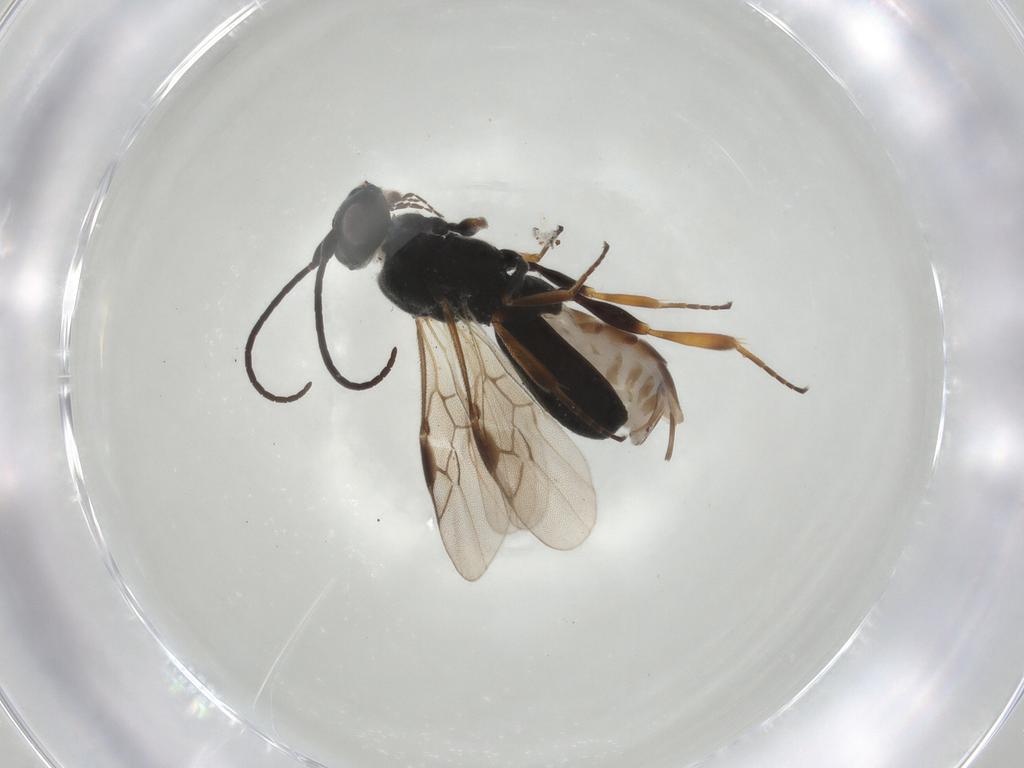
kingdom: Animalia
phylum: Arthropoda
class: Insecta
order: Hymenoptera
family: Braconidae
